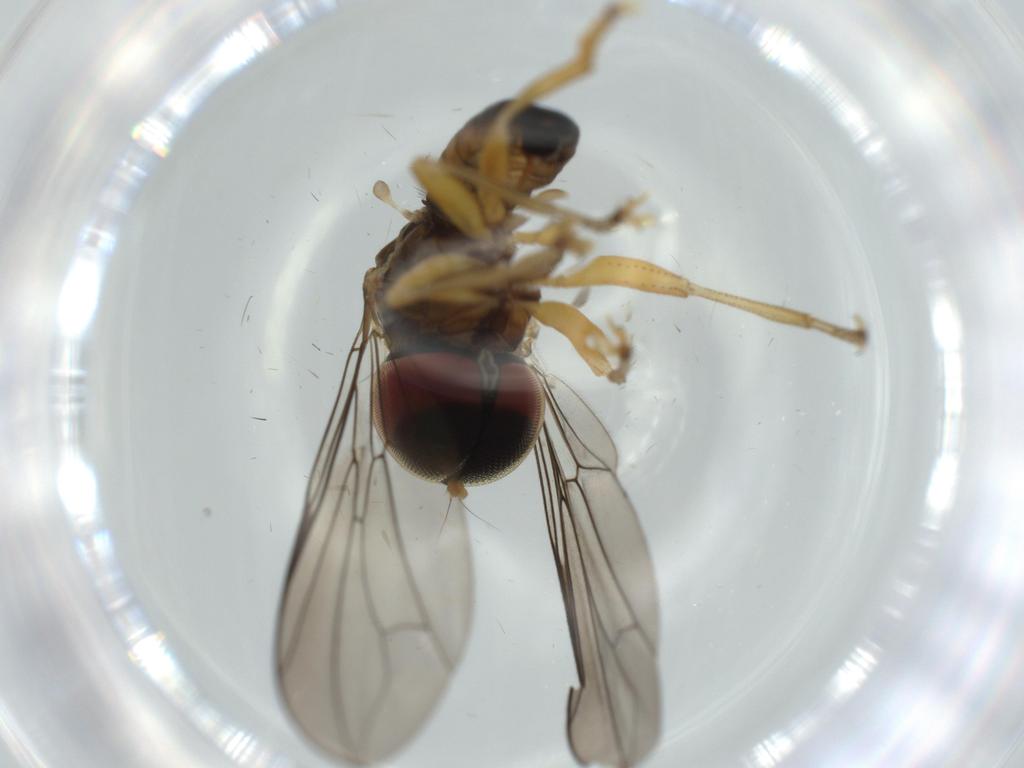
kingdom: Animalia
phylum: Arthropoda
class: Insecta
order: Diptera
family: Pipunculidae
